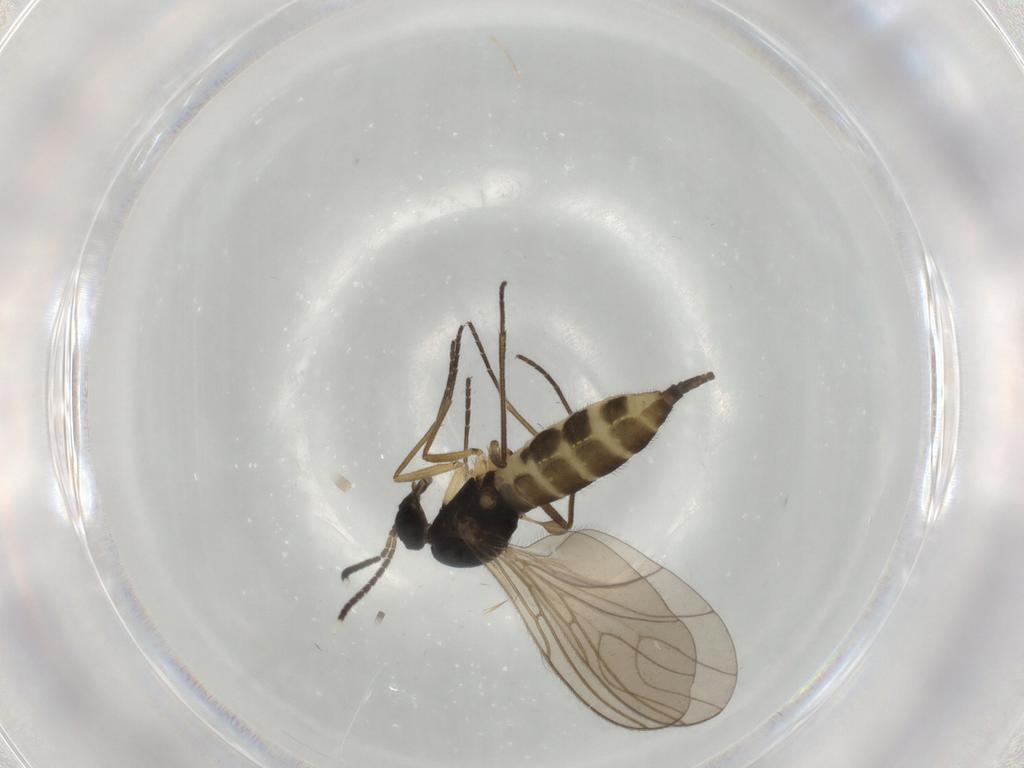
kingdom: Animalia
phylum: Arthropoda
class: Insecta
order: Diptera
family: Sciaridae
